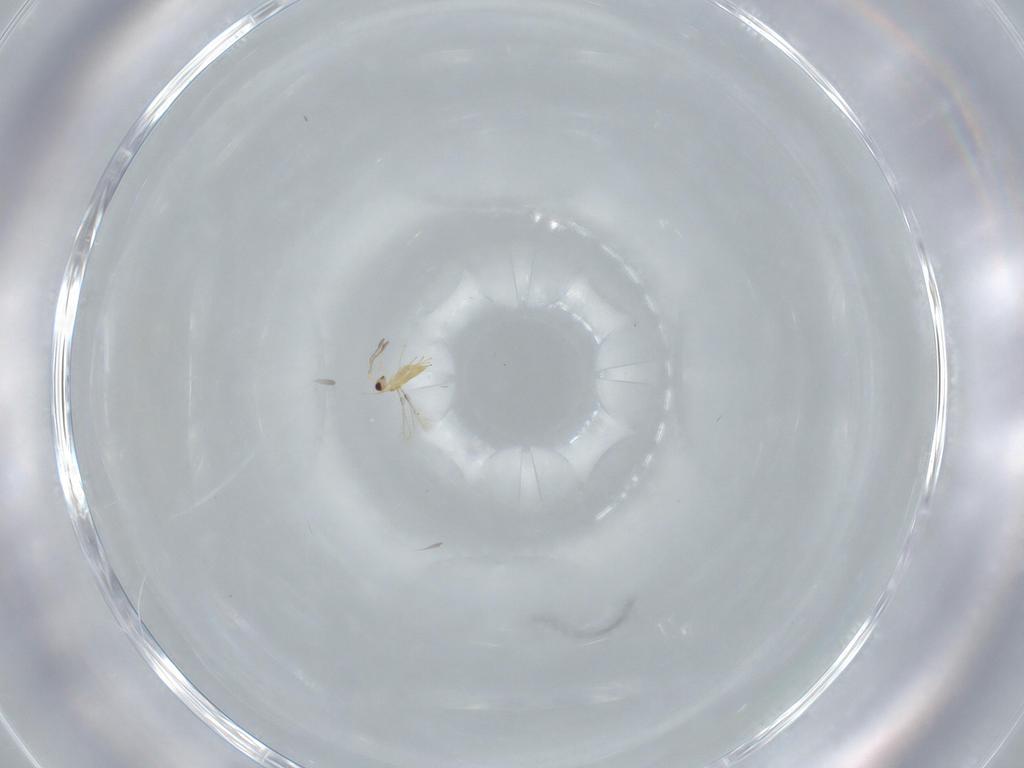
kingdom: Animalia
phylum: Arthropoda
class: Insecta
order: Hymenoptera
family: Mymaridae
